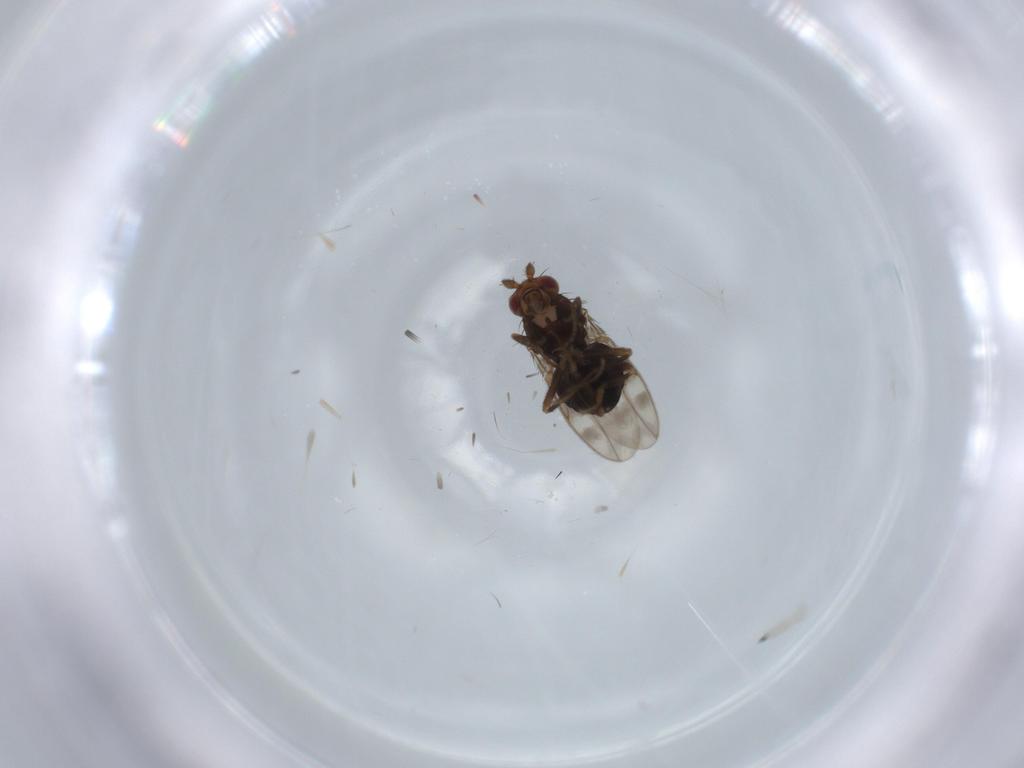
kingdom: Animalia
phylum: Arthropoda
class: Insecta
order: Diptera
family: Sphaeroceridae
